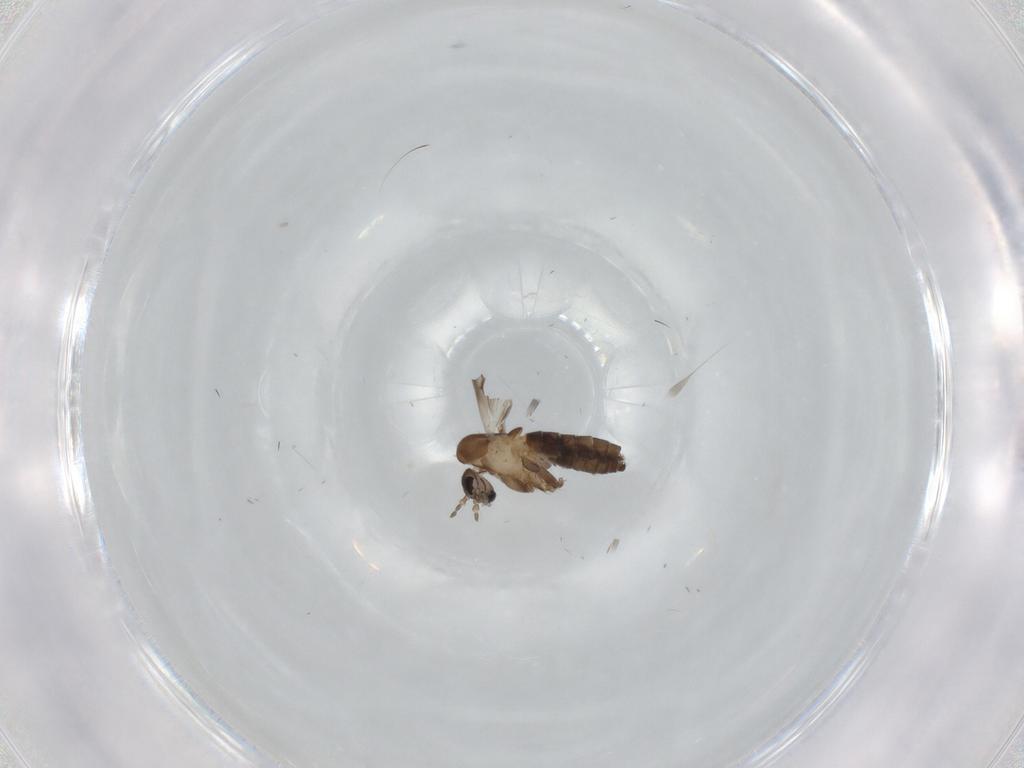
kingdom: Animalia
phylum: Arthropoda
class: Insecta
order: Diptera
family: Psychodidae
